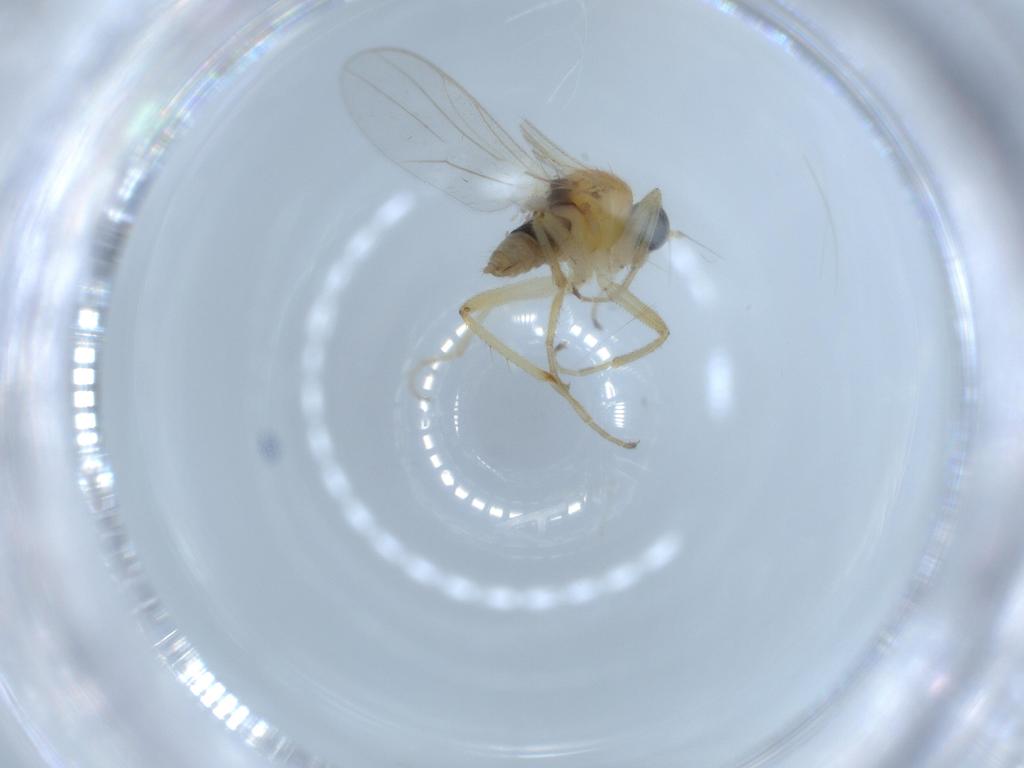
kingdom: Animalia
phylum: Arthropoda
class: Insecta
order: Diptera
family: Hybotidae
